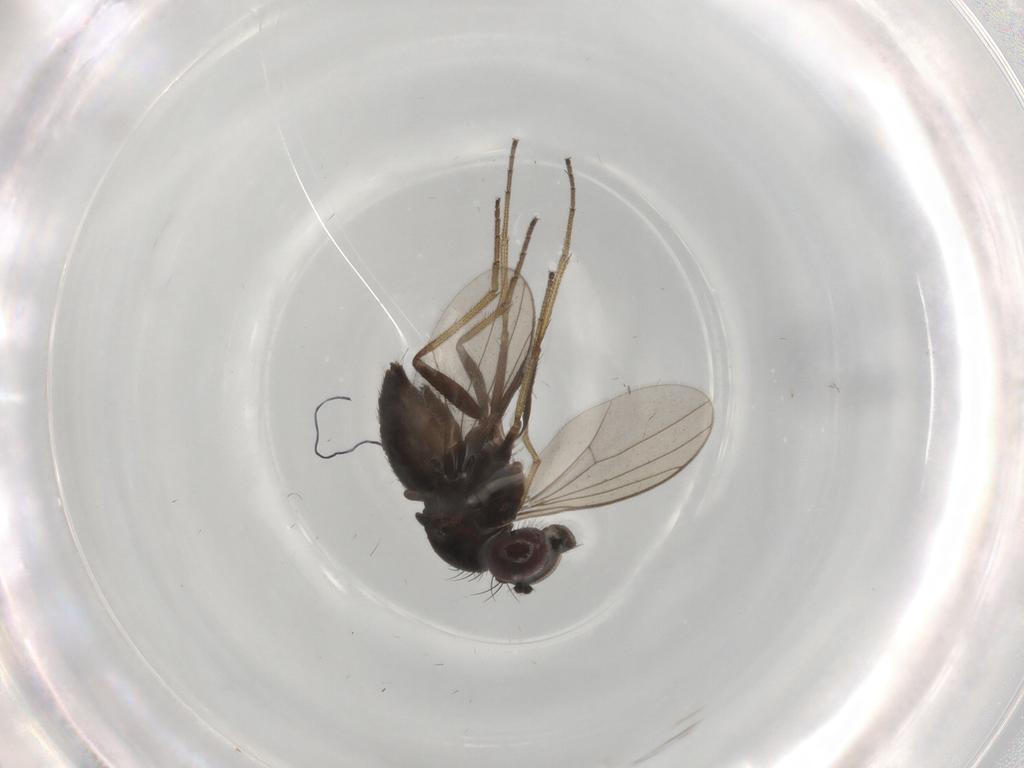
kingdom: Animalia
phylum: Arthropoda
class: Insecta
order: Diptera
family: Dolichopodidae
